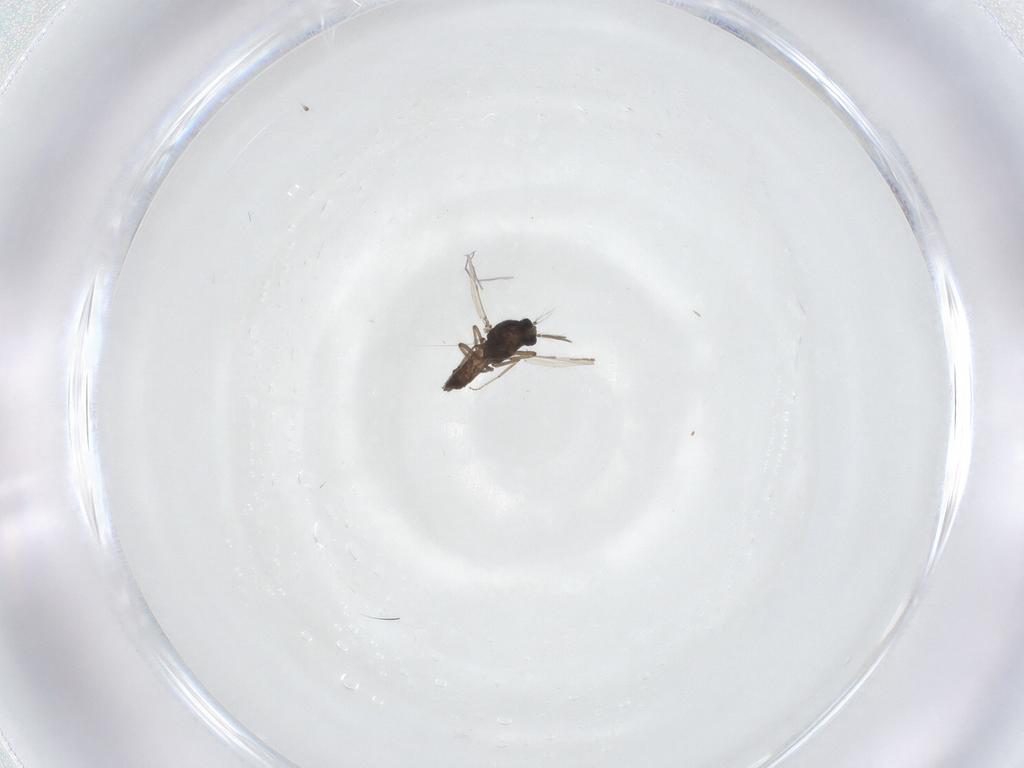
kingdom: Animalia
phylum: Arthropoda
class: Insecta
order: Diptera
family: Ceratopogonidae
